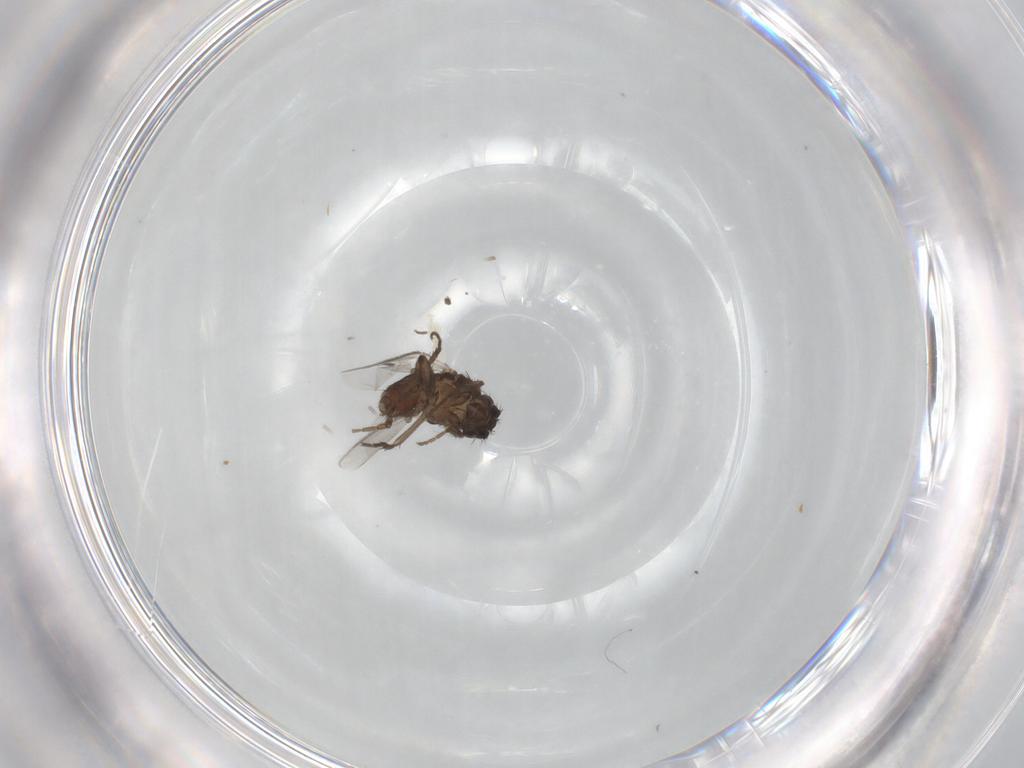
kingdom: Animalia
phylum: Arthropoda
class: Insecta
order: Diptera
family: Sphaeroceridae
